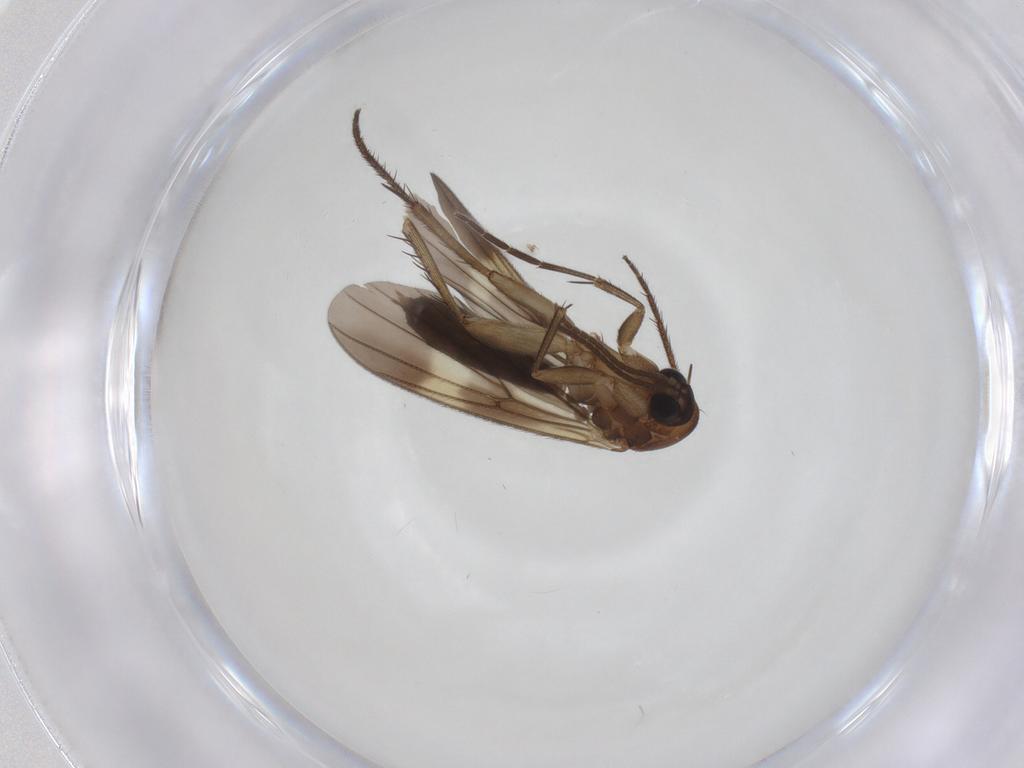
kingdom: Animalia
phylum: Arthropoda
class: Insecta
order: Diptera
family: Mycetophilidae
